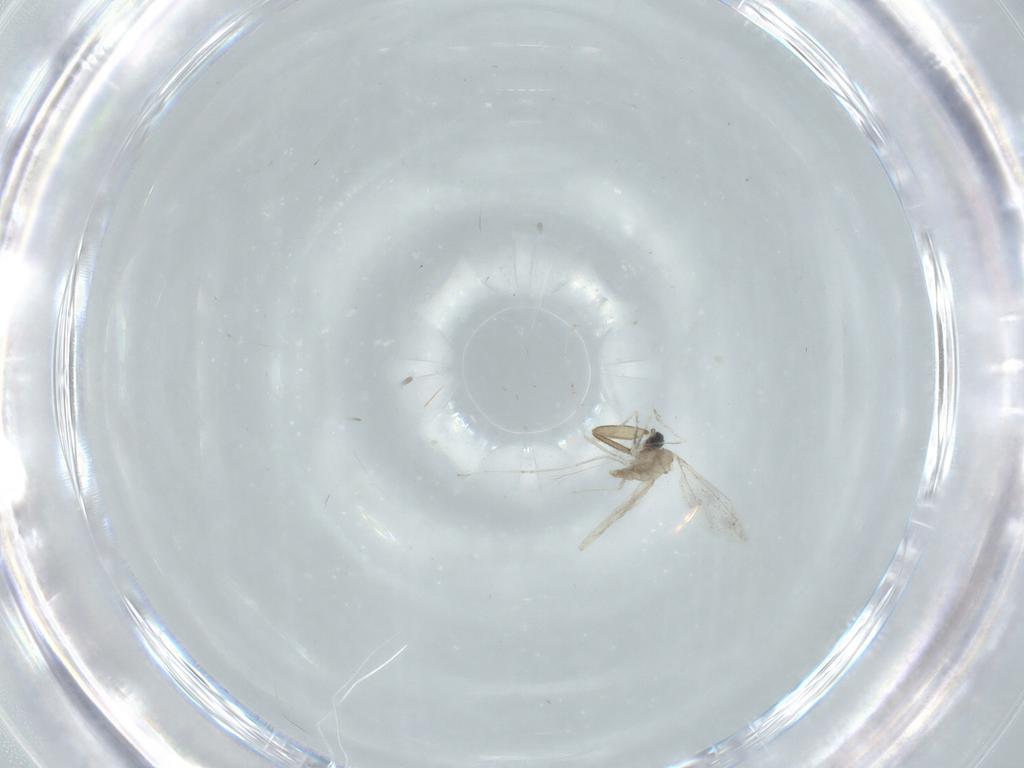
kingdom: Animalia
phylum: Arthropoda
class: Insecta
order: Diptera
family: Cecidomyiidae
